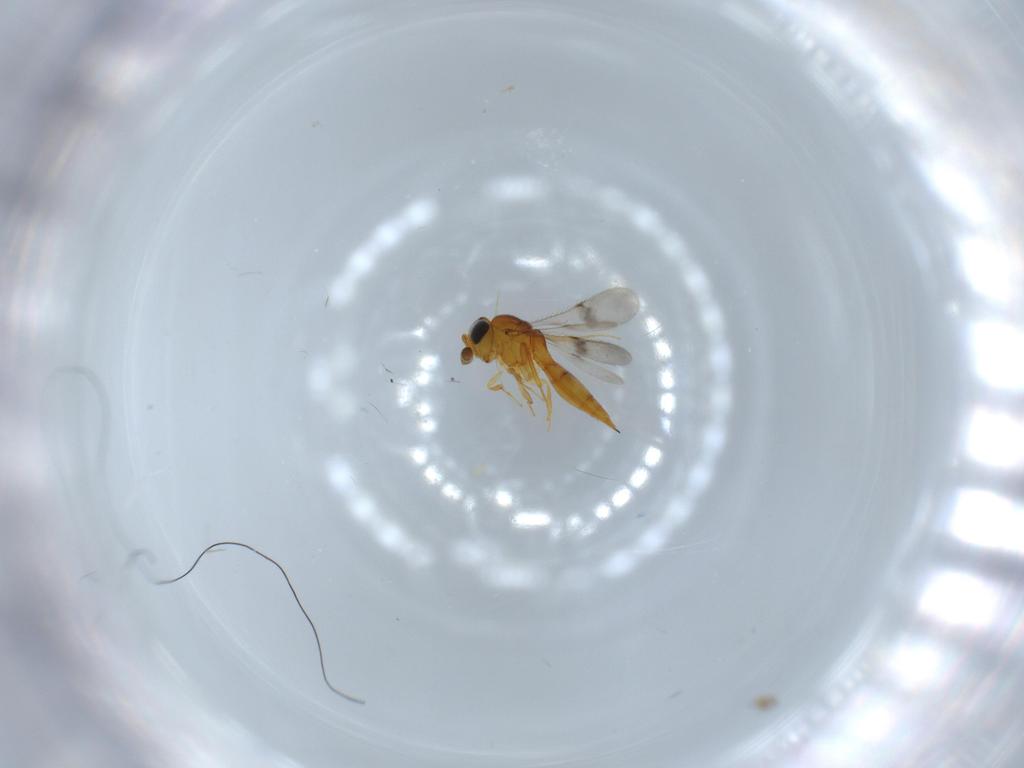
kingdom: Animalia
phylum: Arthropoda
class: Insecta
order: Hymenoptera
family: Scelionidae
